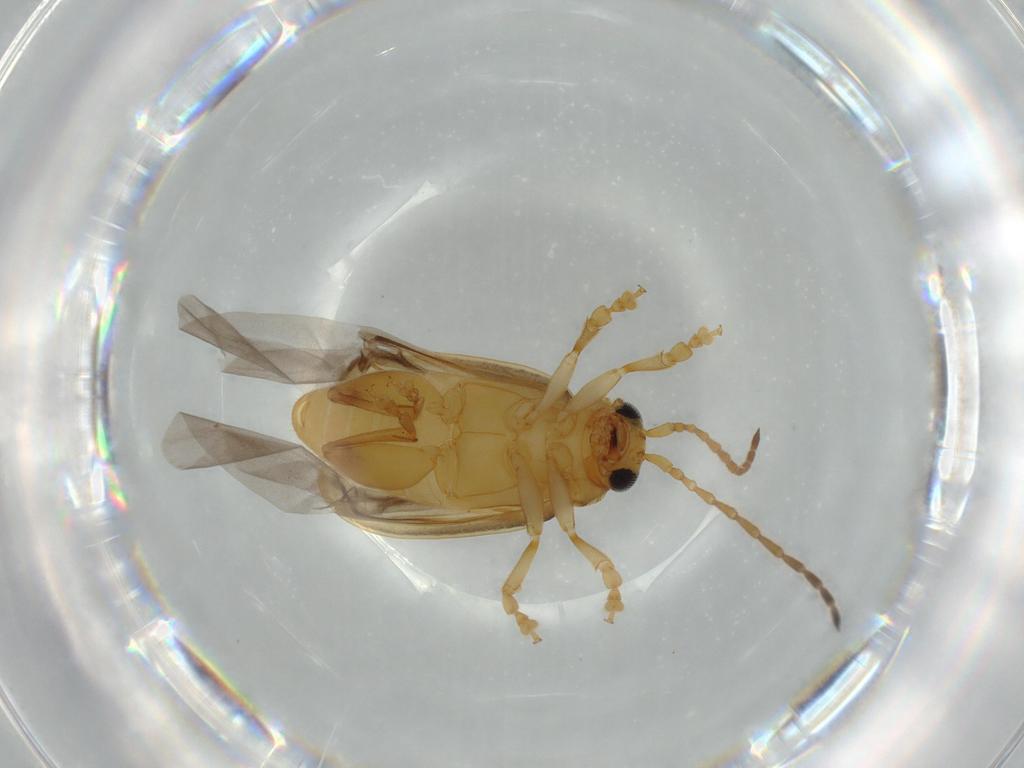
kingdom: Animalia
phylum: Arthropoda
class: Insecta
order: Coleoptera
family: Chrysomelidae
